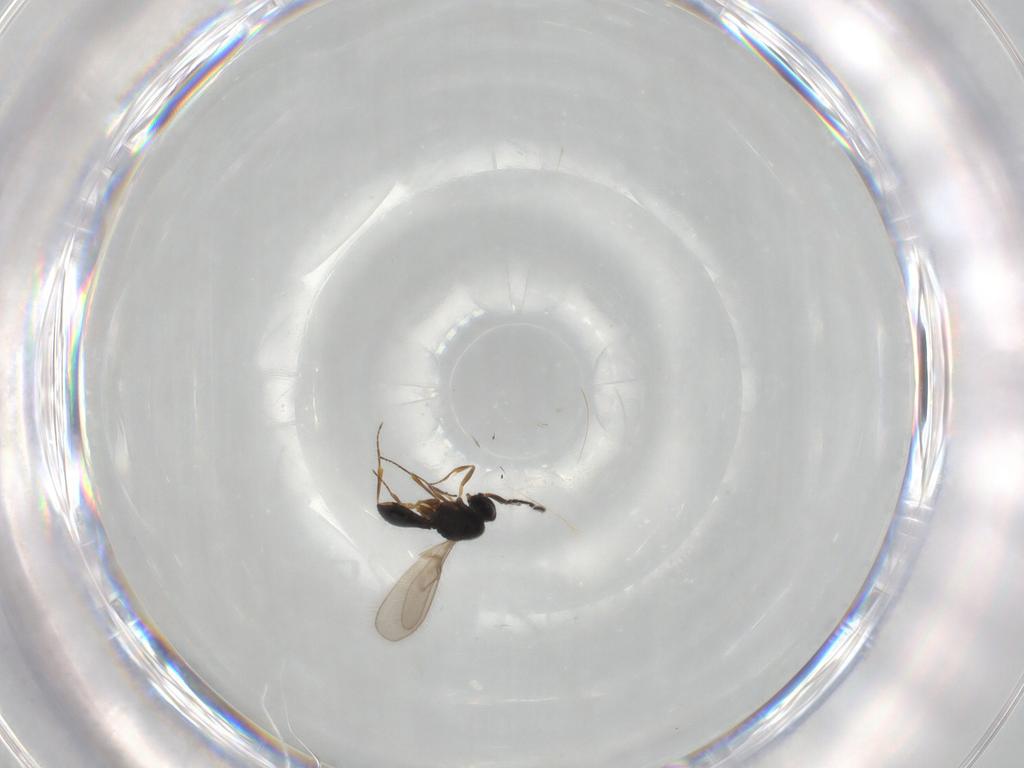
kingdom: Animalia
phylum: Arthropoda
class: Insecta
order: Hymenoptera
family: Scelionidae
